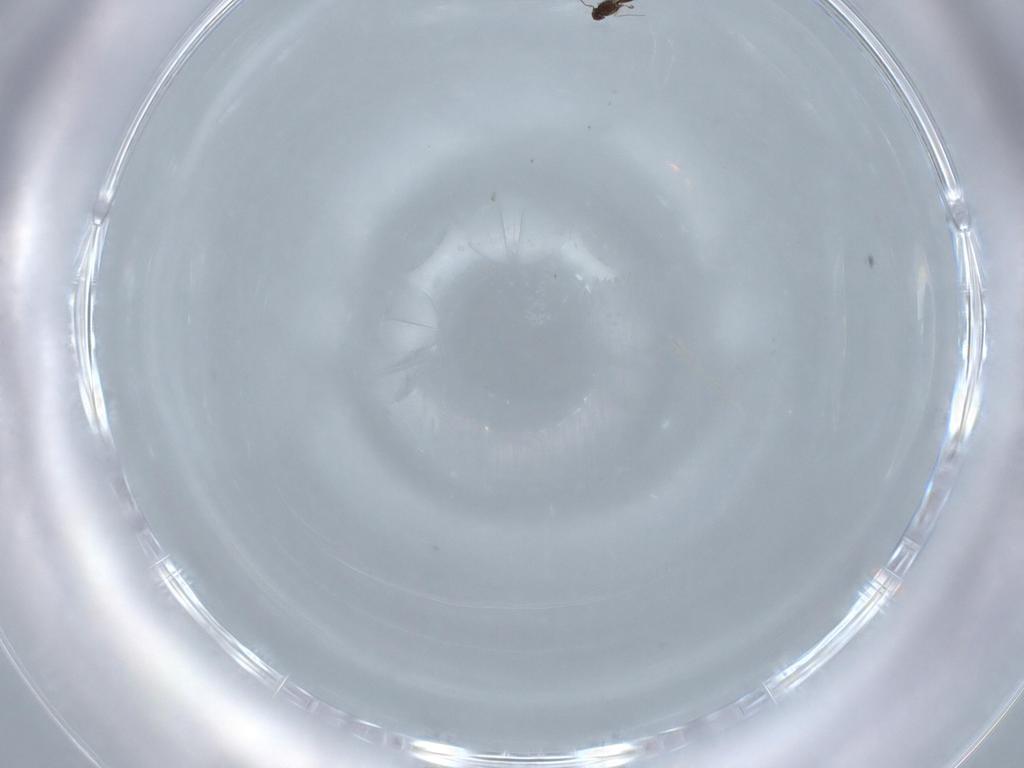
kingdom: Animalia
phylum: Arthropoda
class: Insecta
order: Hymenoptera
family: Mymaridae
